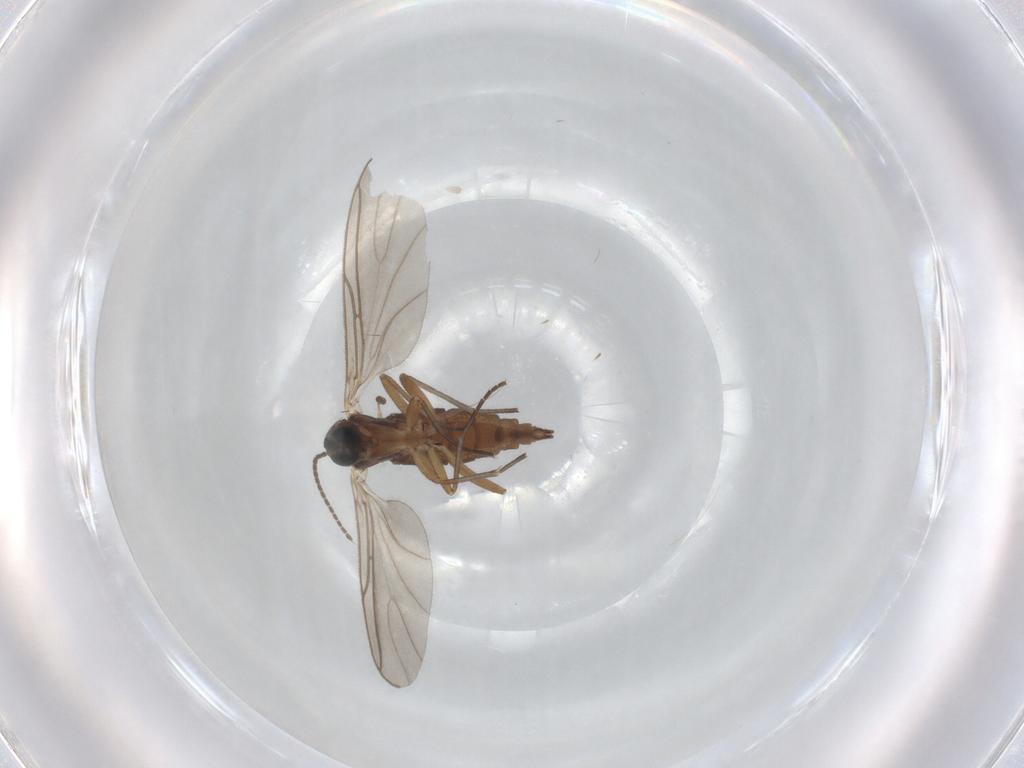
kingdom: Animalia
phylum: Arthropoda
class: Insecta
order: Diptera
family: Sciaridae
